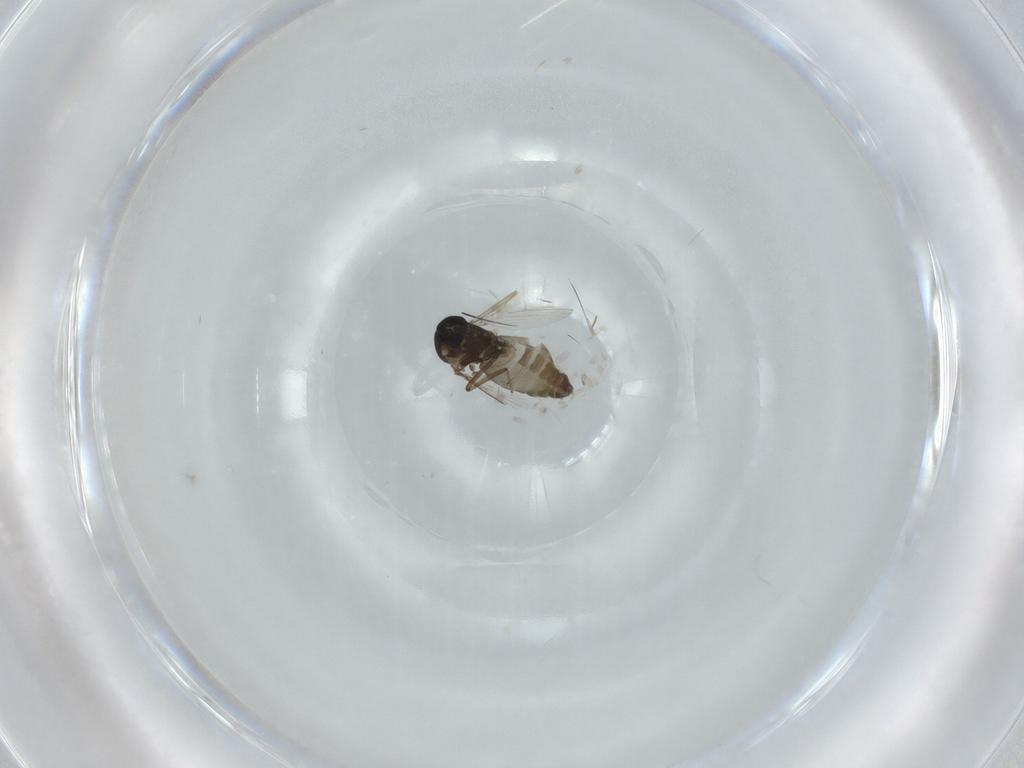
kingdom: Animalia
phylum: Arthropoda
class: Insecta
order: Diptera
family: Ceratopogonidae
